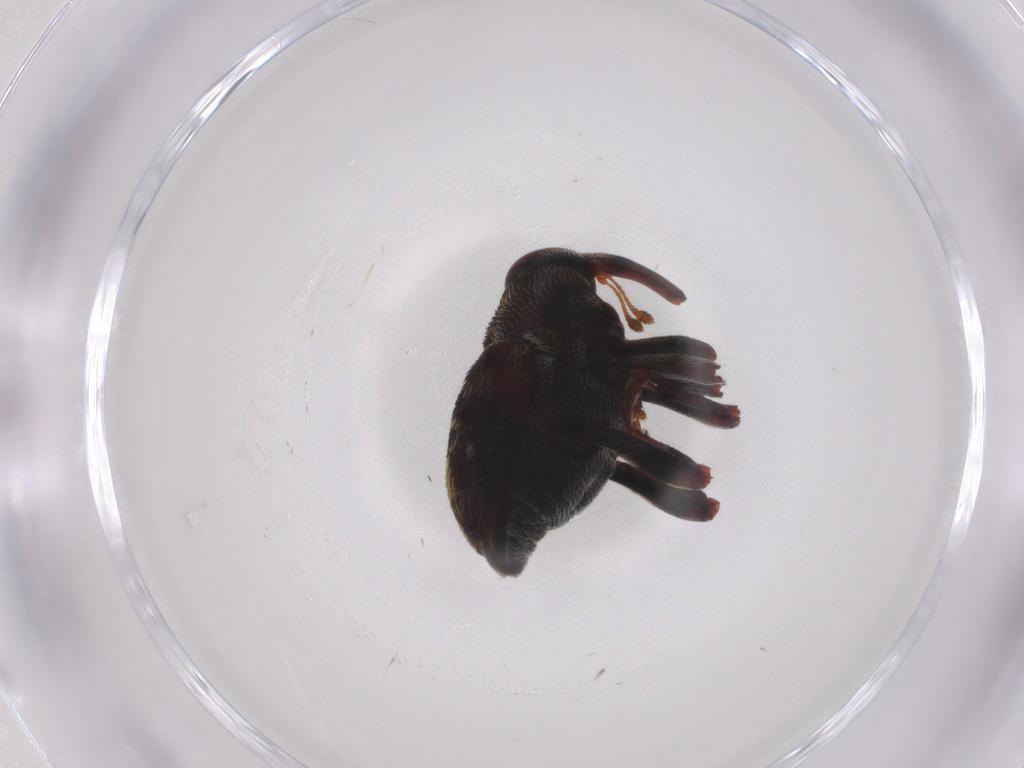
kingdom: Animalia
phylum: Arthropoda
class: Insecta
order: Coleoptera
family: Curculionidae
